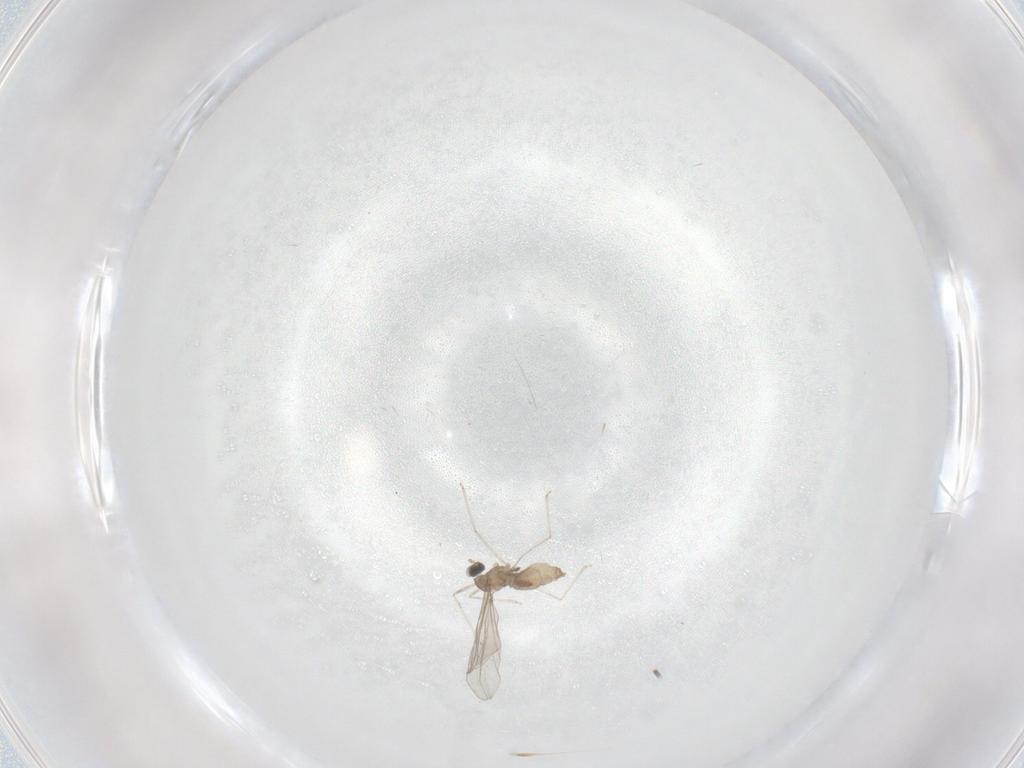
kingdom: Animalia
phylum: Arthropoda
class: Insecta
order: Diptera
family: Cecidomyiidae
